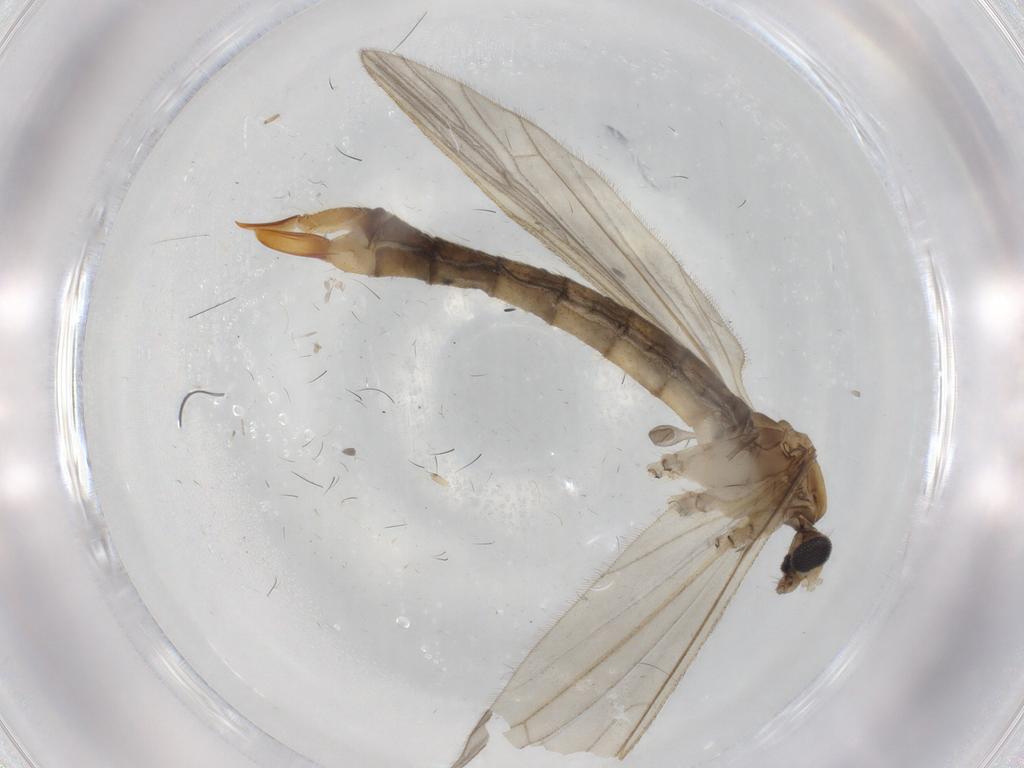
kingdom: Animalia
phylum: Arthropoda
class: Insecta
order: Diptera
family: Limoniidae
